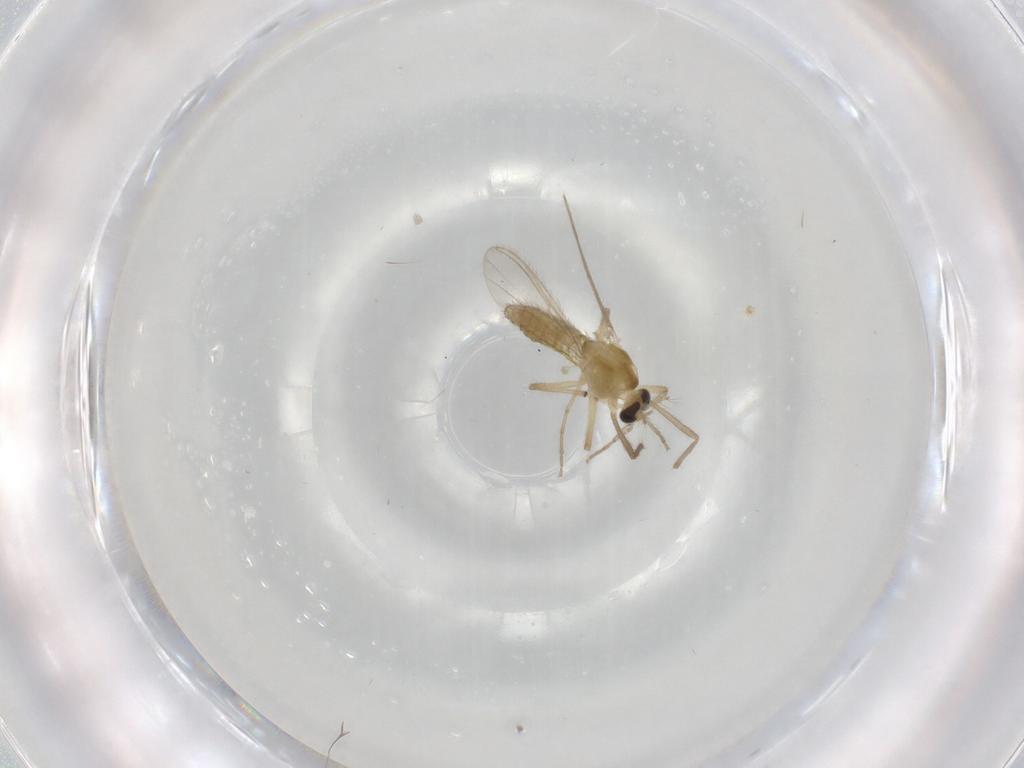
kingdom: Animalia
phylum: Arthropoda
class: Insecta
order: Diptera
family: Chironomidae
